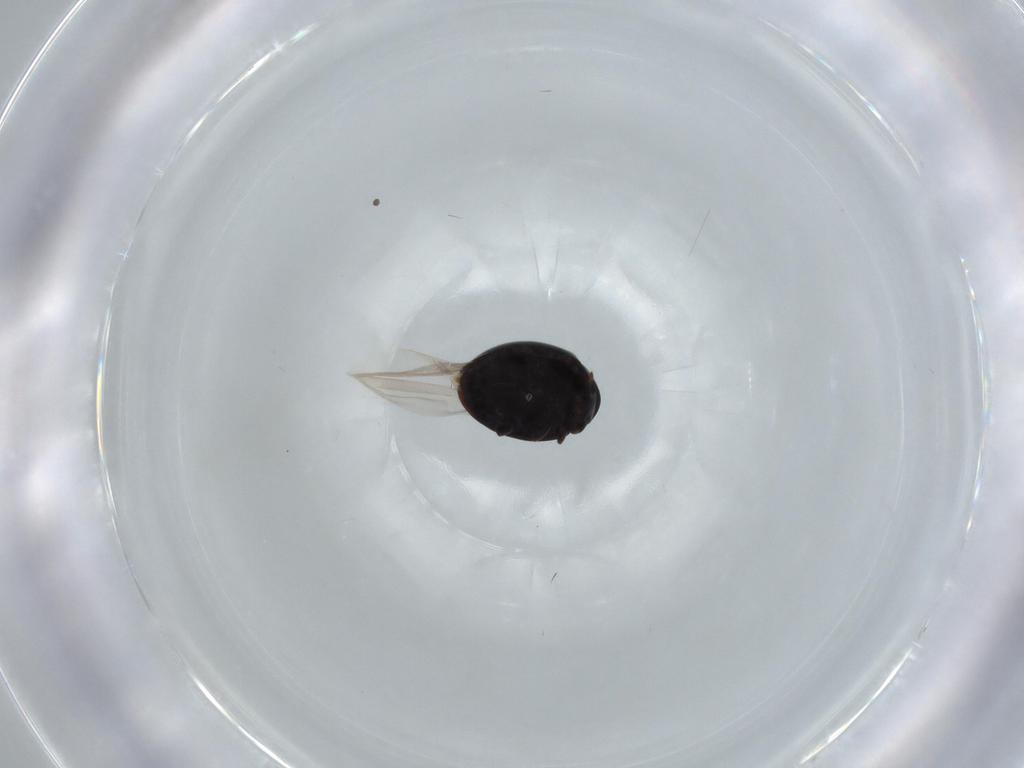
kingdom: Animalia
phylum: Arthropoda
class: Insecta
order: Coleoptera
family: Coccinellidae
